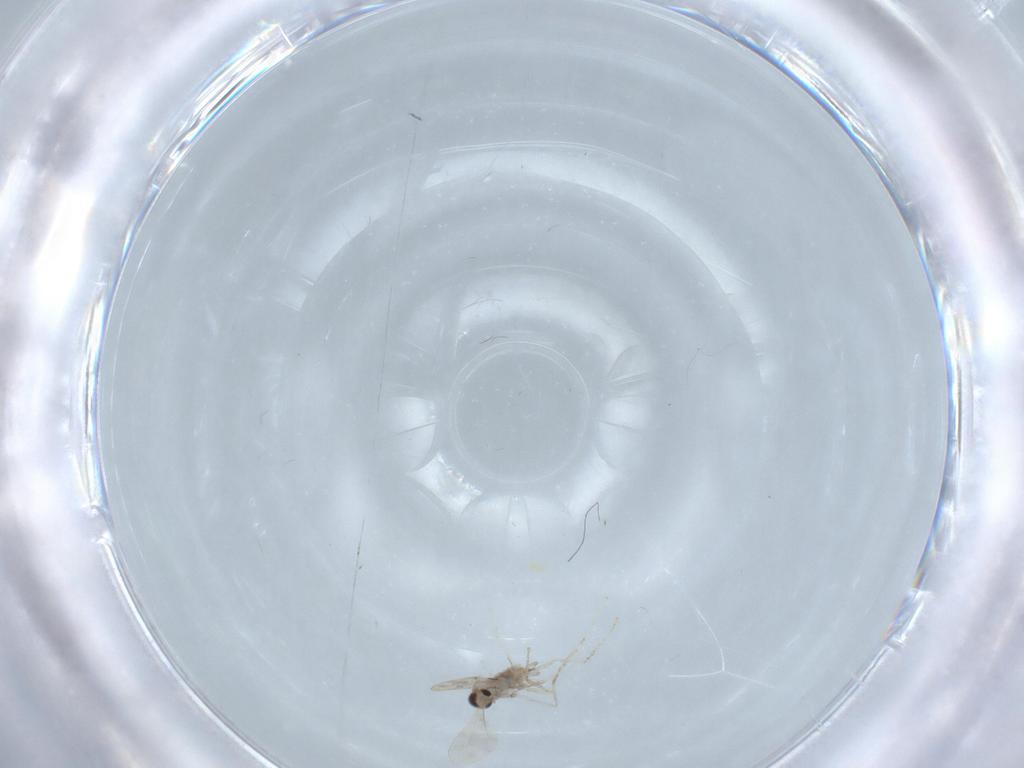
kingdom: Animalia
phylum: Arthropoda
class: Insecta
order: Diptera
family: Cecidomyiidae
